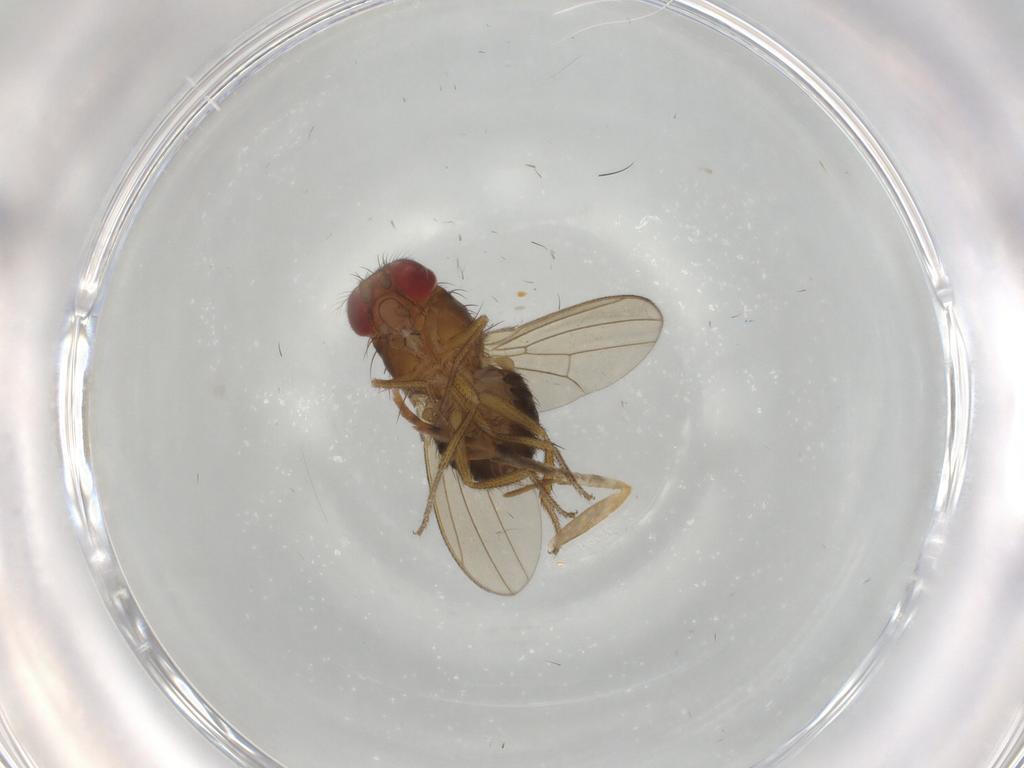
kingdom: Animalia
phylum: Arthropoda
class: Insecta
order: Diptera
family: Drosophilidae
